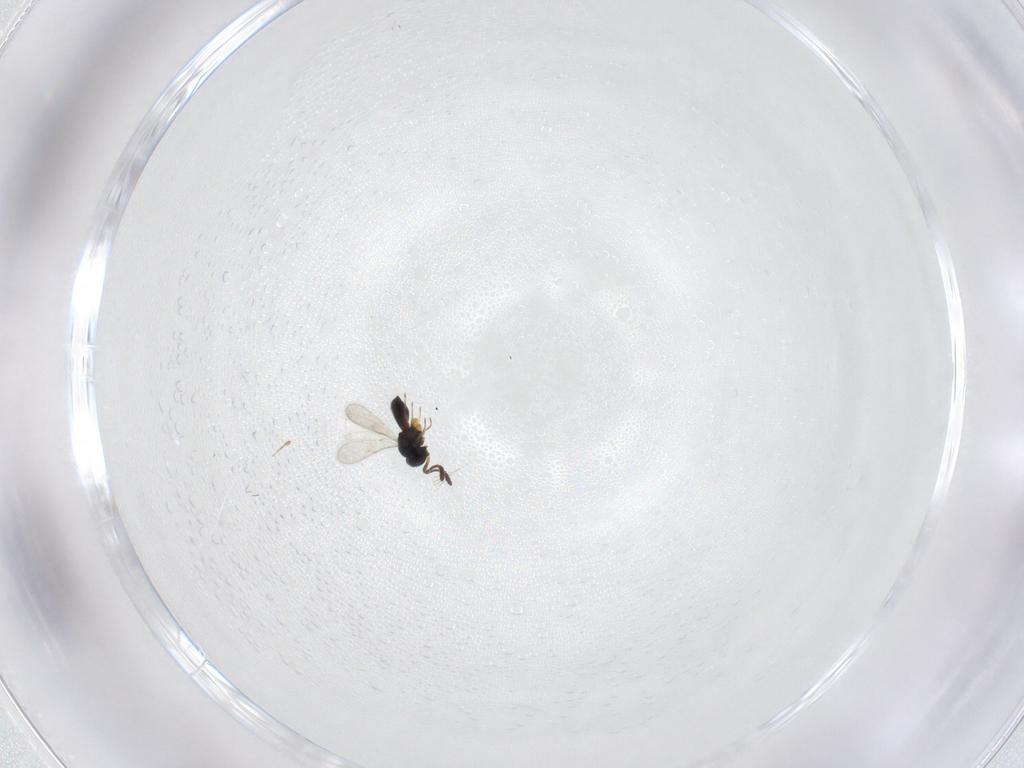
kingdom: Animalia
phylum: Arthropoda
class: Insecta
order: Hymenoptera
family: Scelionidae
